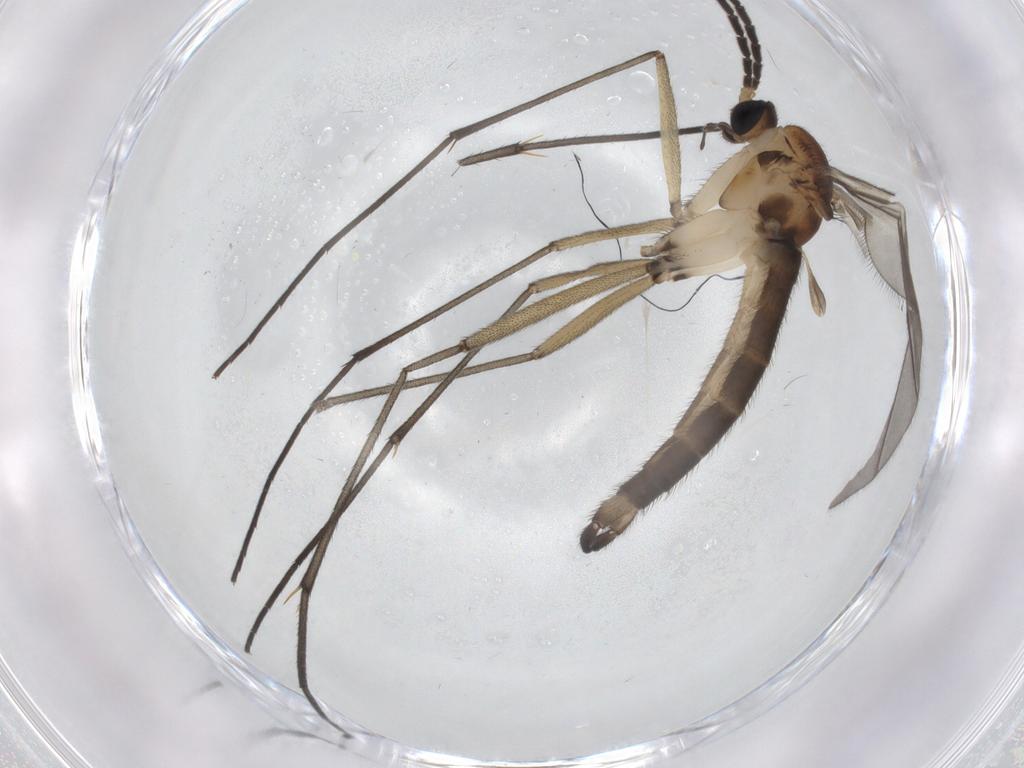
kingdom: Animalia
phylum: Arthropoda
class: Insecta
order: Diptera
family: Sciaridae
